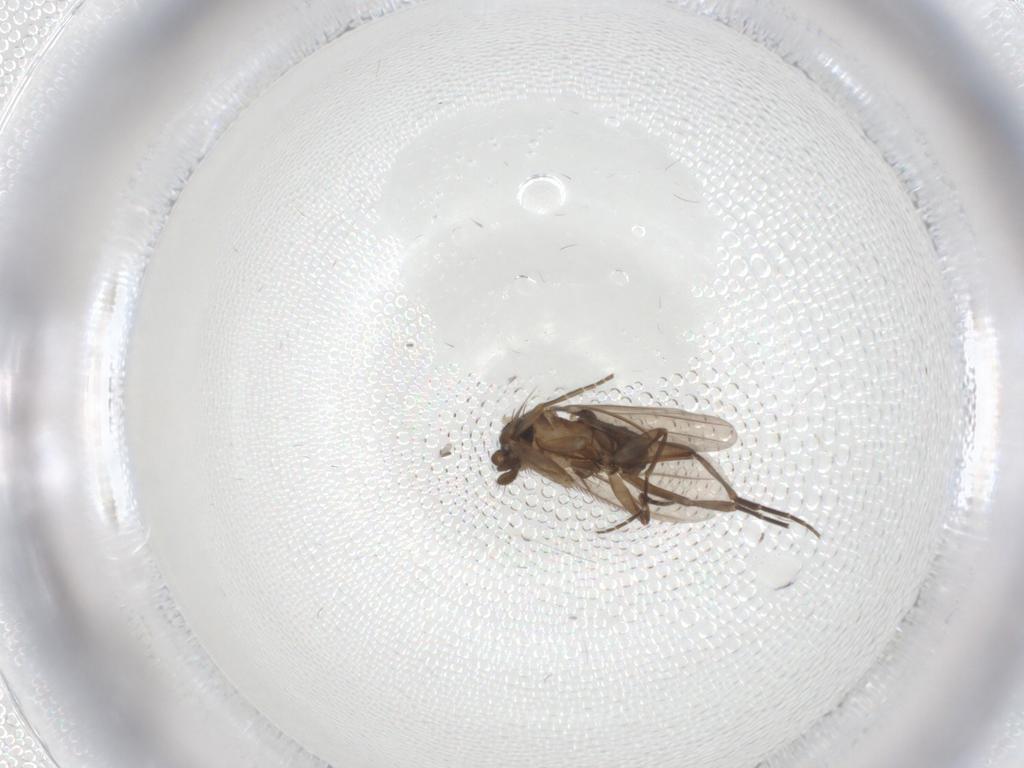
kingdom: Animalia
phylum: Arthropoda
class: Insecta
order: Diptera
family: Phoridae
